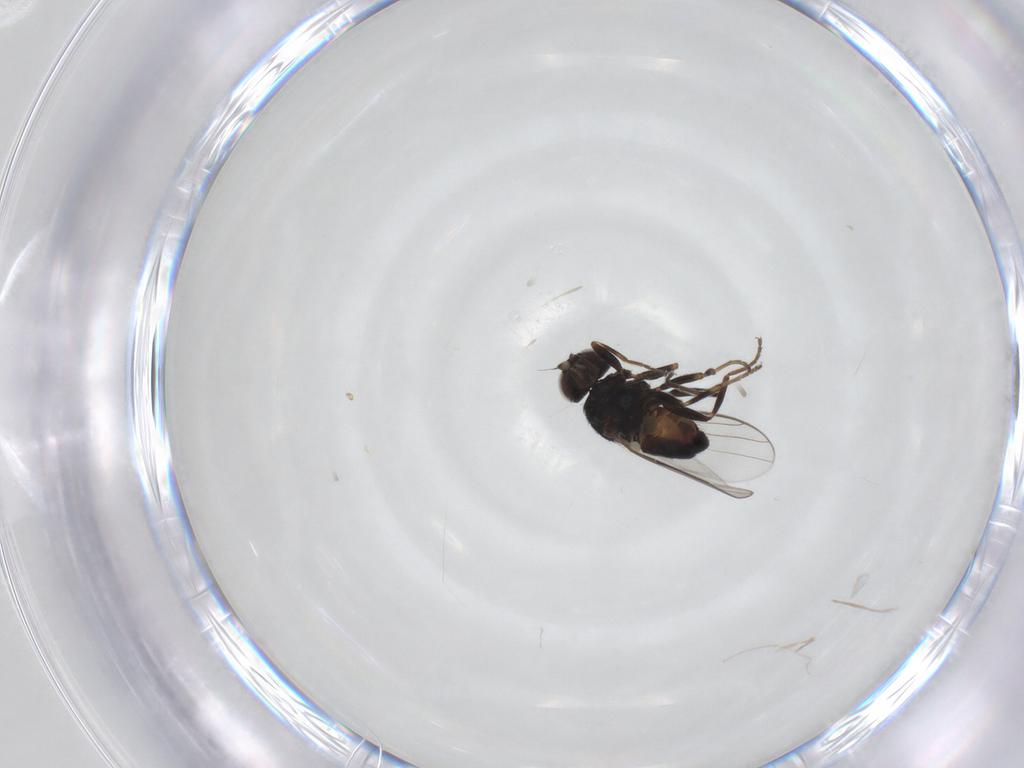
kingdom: Animalia
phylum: Arthropoda
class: Insecta
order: Diptera
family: Chloropidae
